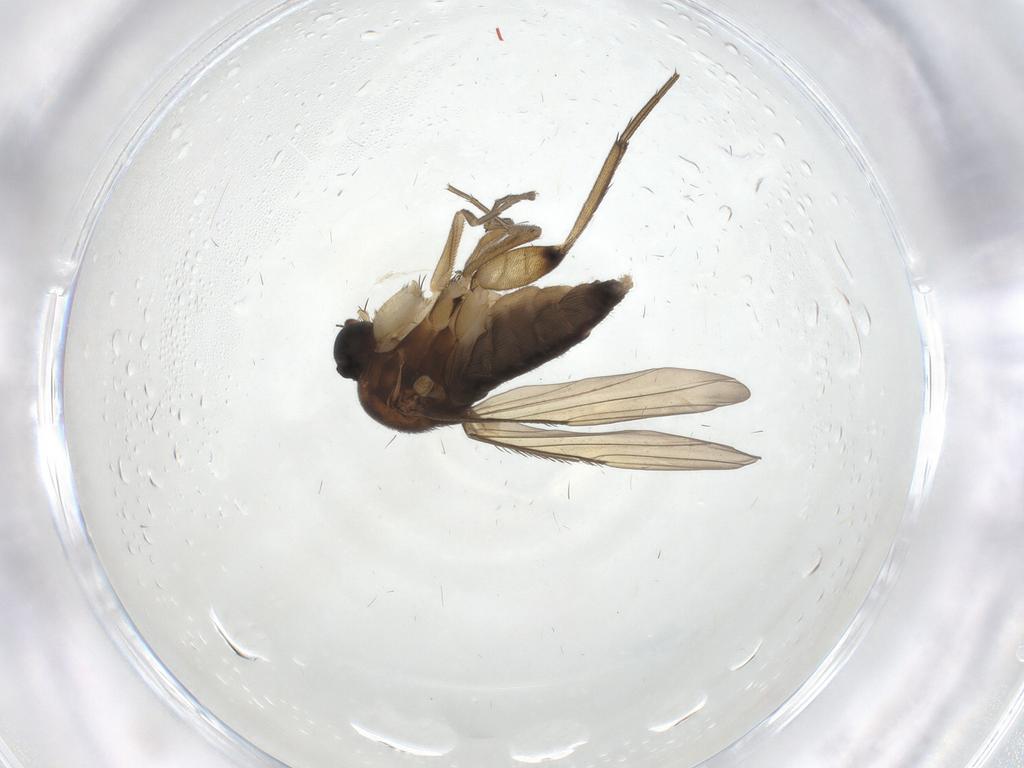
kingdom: Animalia
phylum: Arthropoda
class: Insecta
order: Diptera
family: Phoridae
